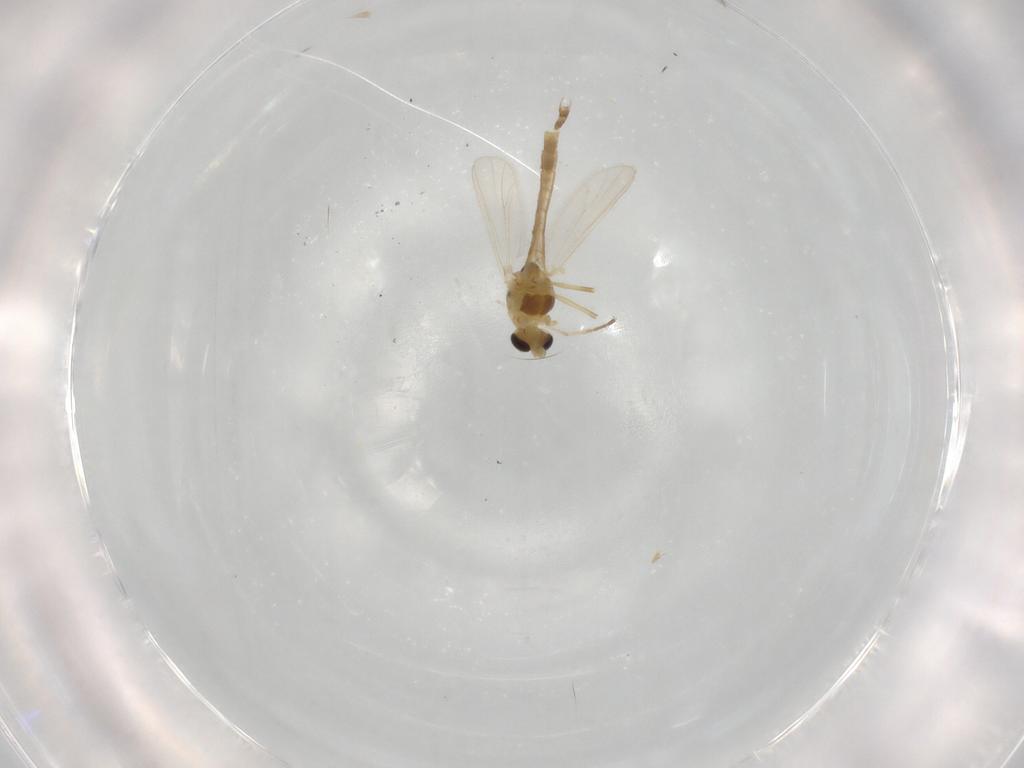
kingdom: Animalia
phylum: Arthropoda
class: Insecta
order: Diptera
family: Chironomidae
